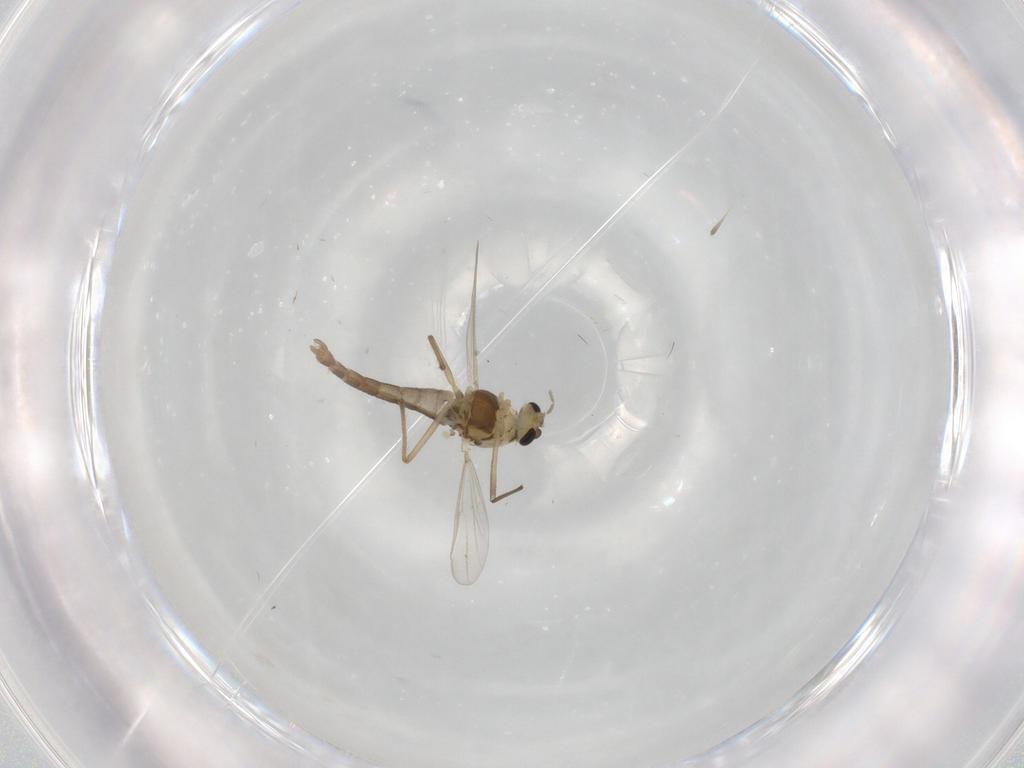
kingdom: Animalia
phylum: Arthropoda
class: Insecta
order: Diptera
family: Chironomidae
